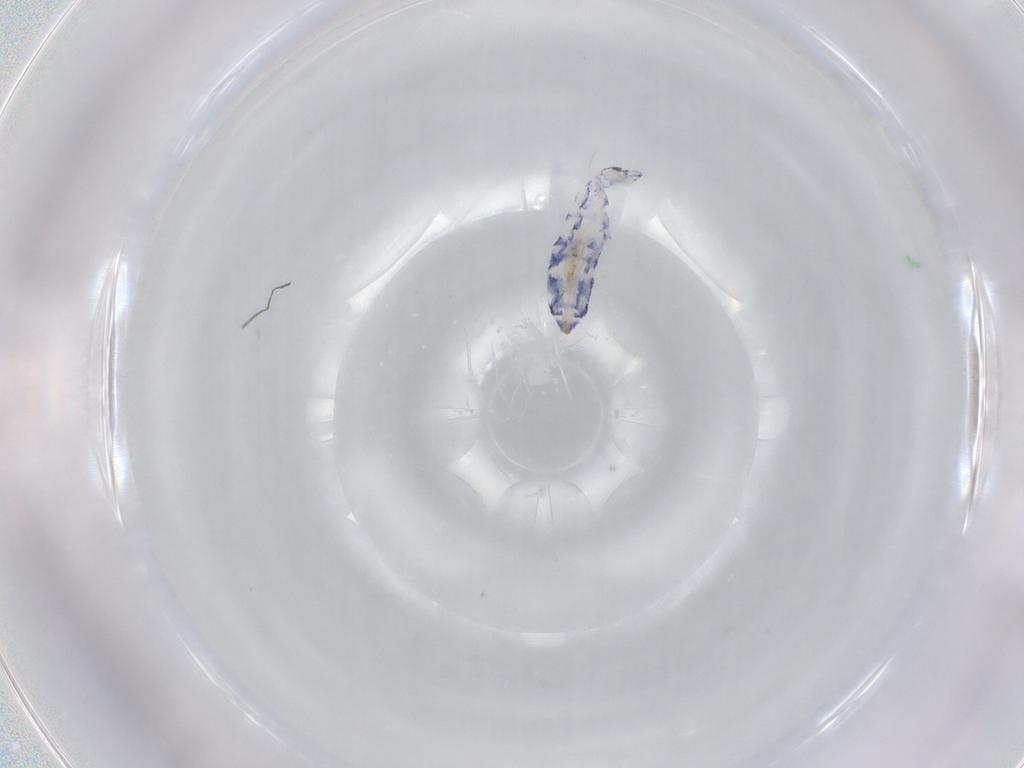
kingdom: Animalia
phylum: Arthropoda
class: Collembola
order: Entomobryomorpha
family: Entomobryidae
